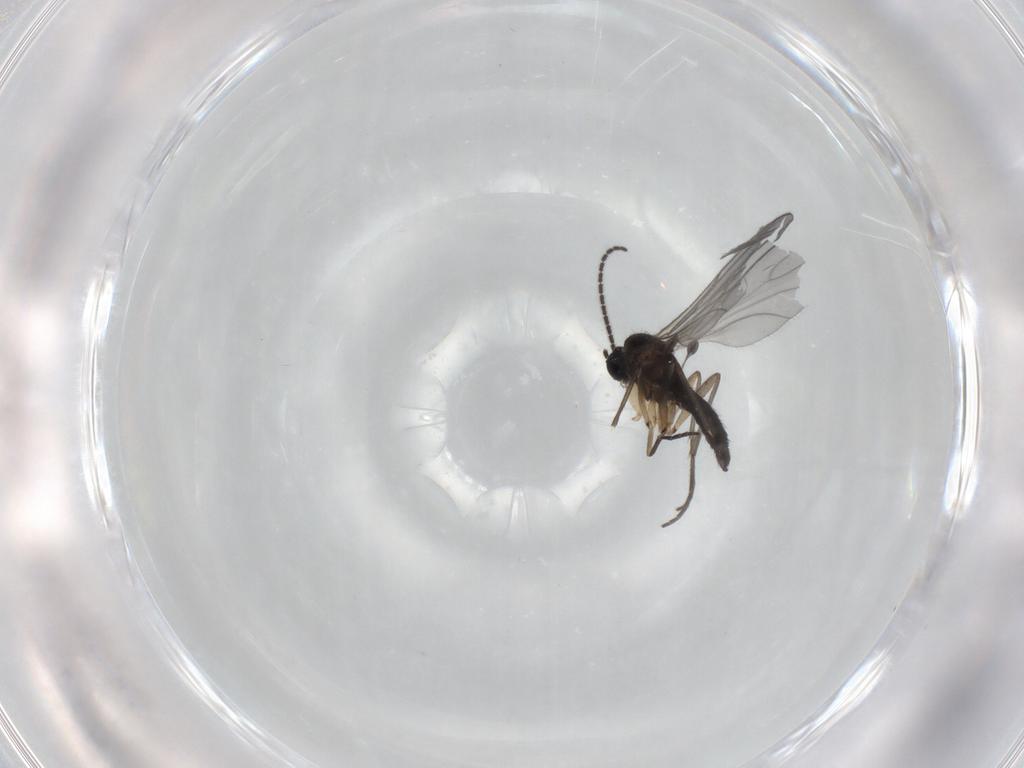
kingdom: Animalia
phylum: Arthropoda
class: Insecta
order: Diptera
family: Sciaridae
